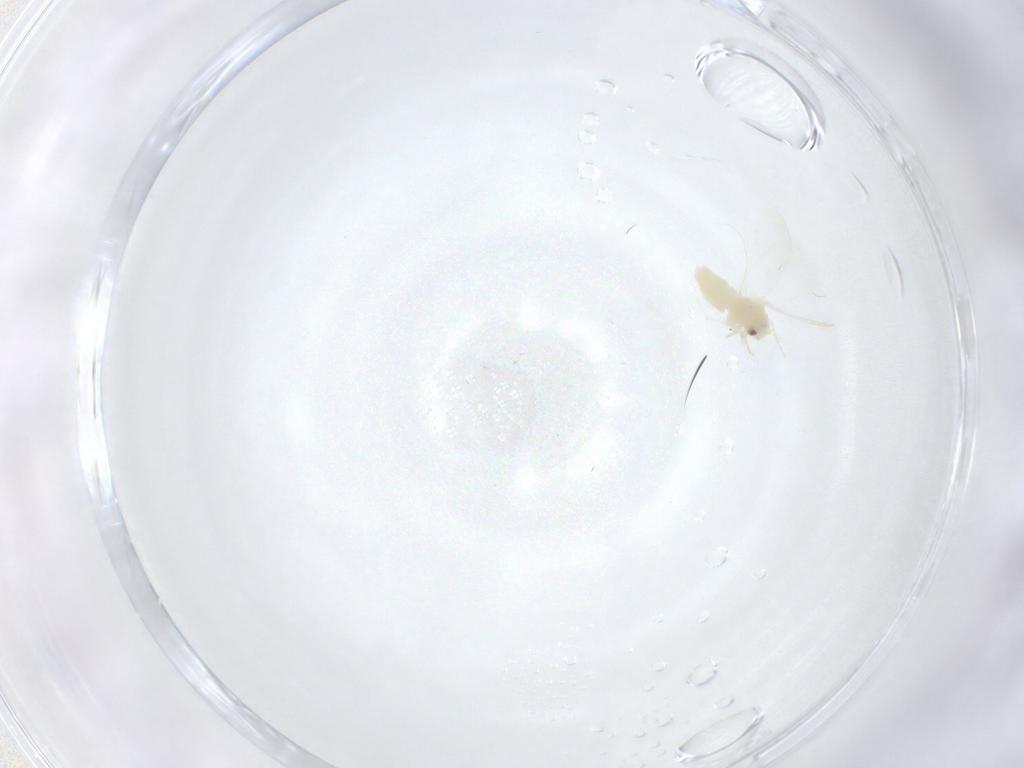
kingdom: Animalia
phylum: Arthropoda
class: Insecta
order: Hemiptera
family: Aleyrodidae
